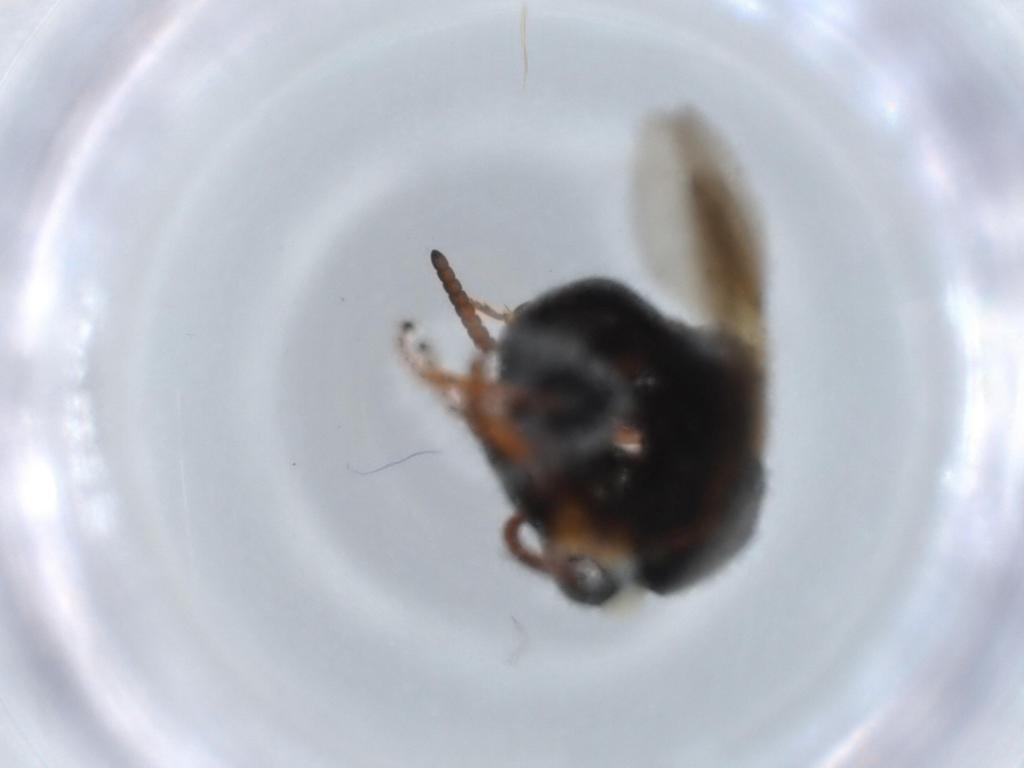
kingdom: Animalia
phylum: Arthropoda
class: Insecta
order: Hymenoptera
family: Bethylidae
